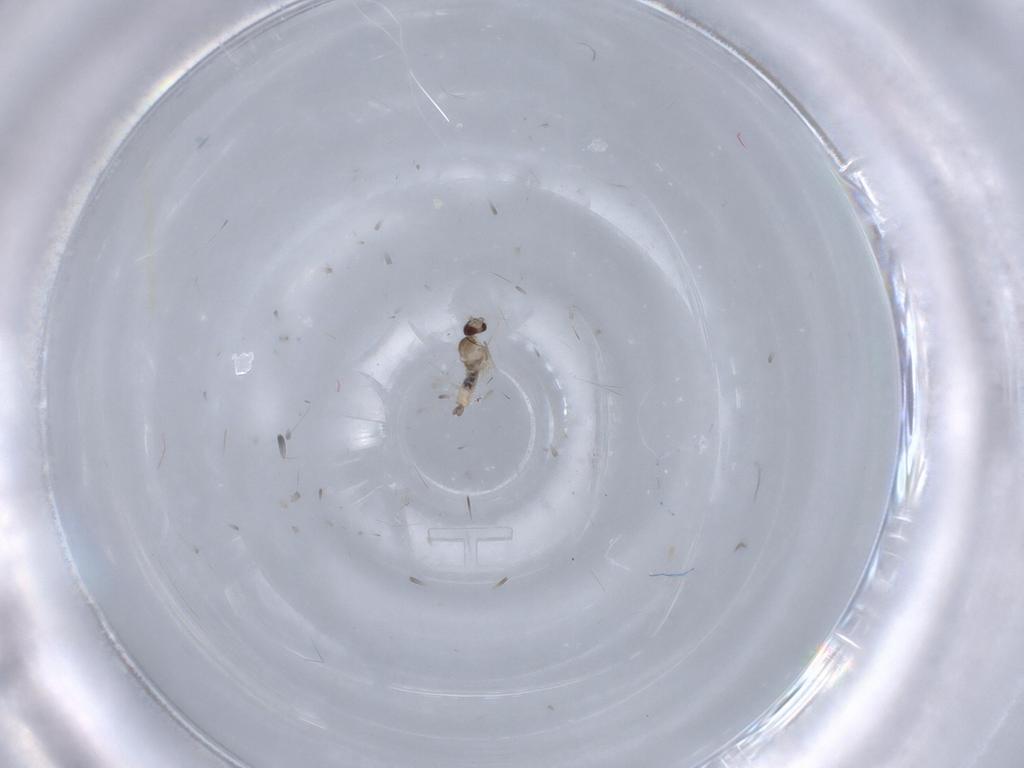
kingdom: Animalia
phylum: Arthropoda
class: Insecta
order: Diptera
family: Cecidomyiidae
